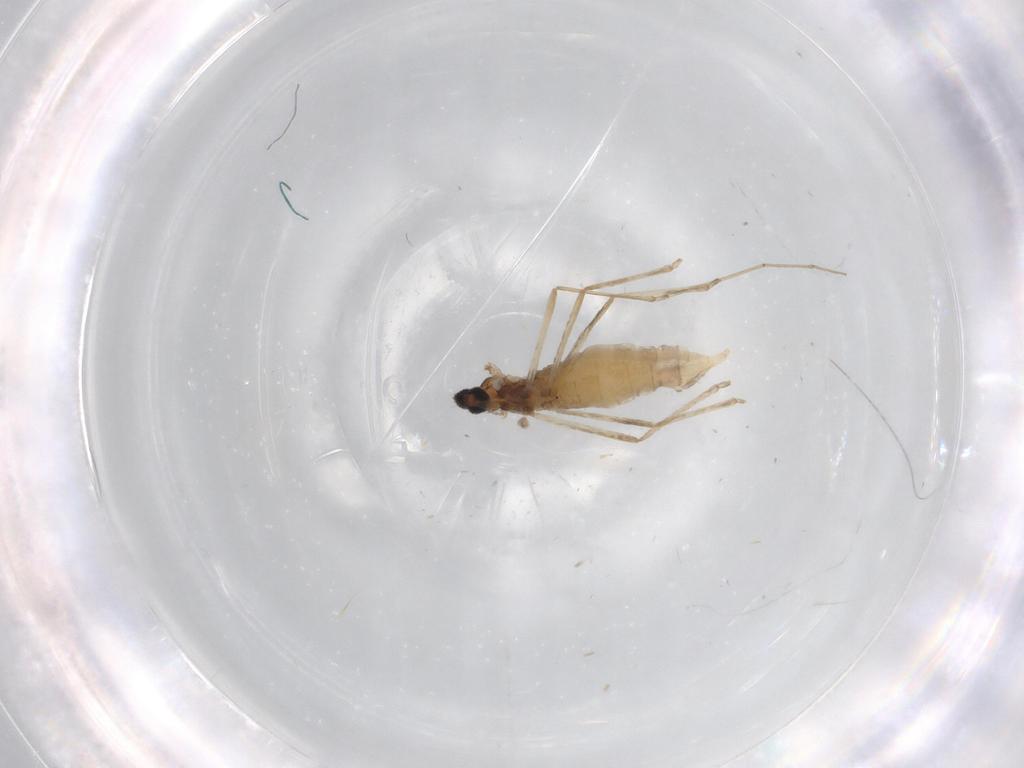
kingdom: Animalia
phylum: Arthropoda
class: Insecta
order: Diptera
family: Cecidomyiidae
